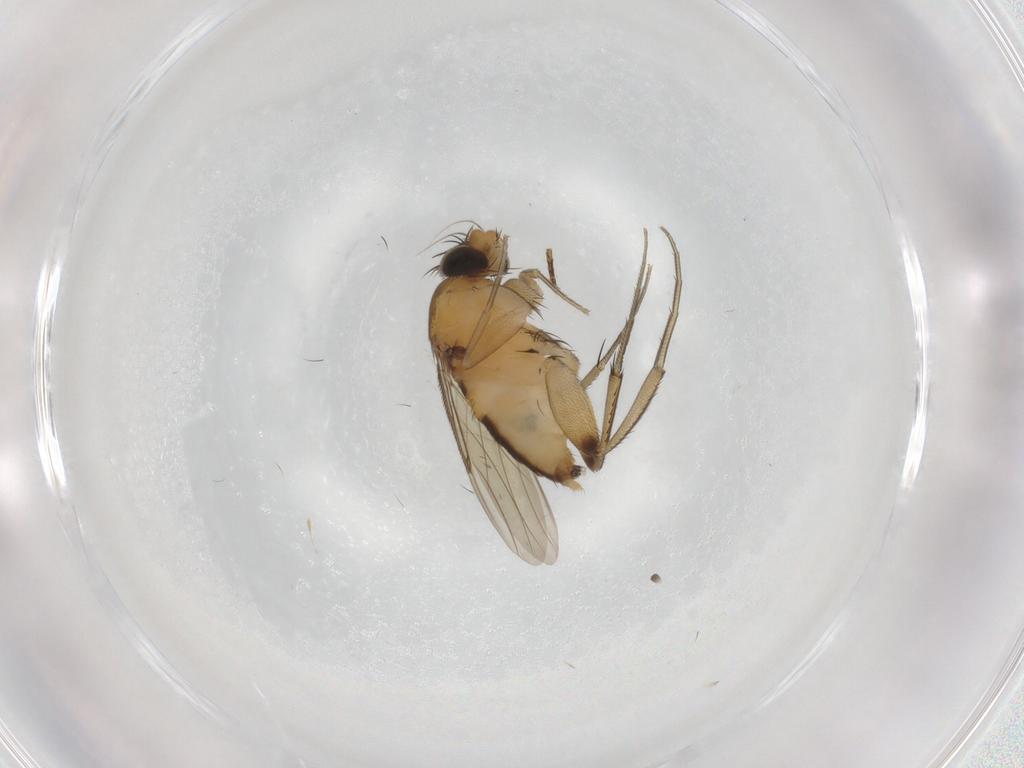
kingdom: Animalia
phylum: Arthropoda
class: Insecta
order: Diptera
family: Phoridae
